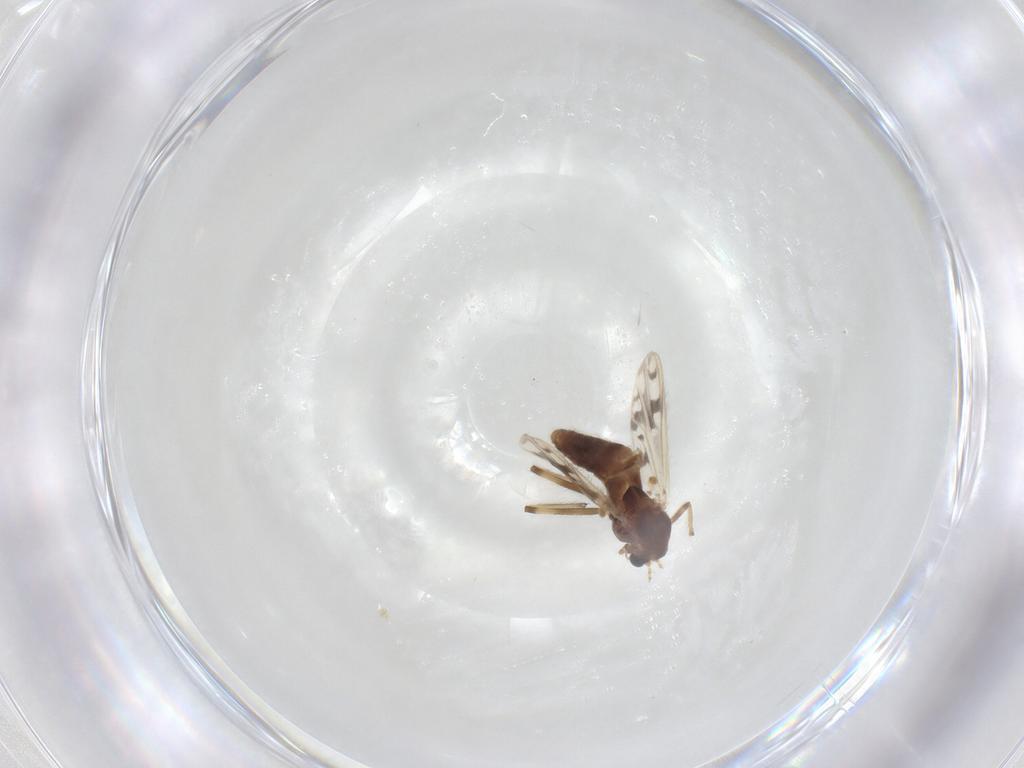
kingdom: Animalia
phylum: Arthropoda
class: Insecta
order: Diptera
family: Chironomidae
